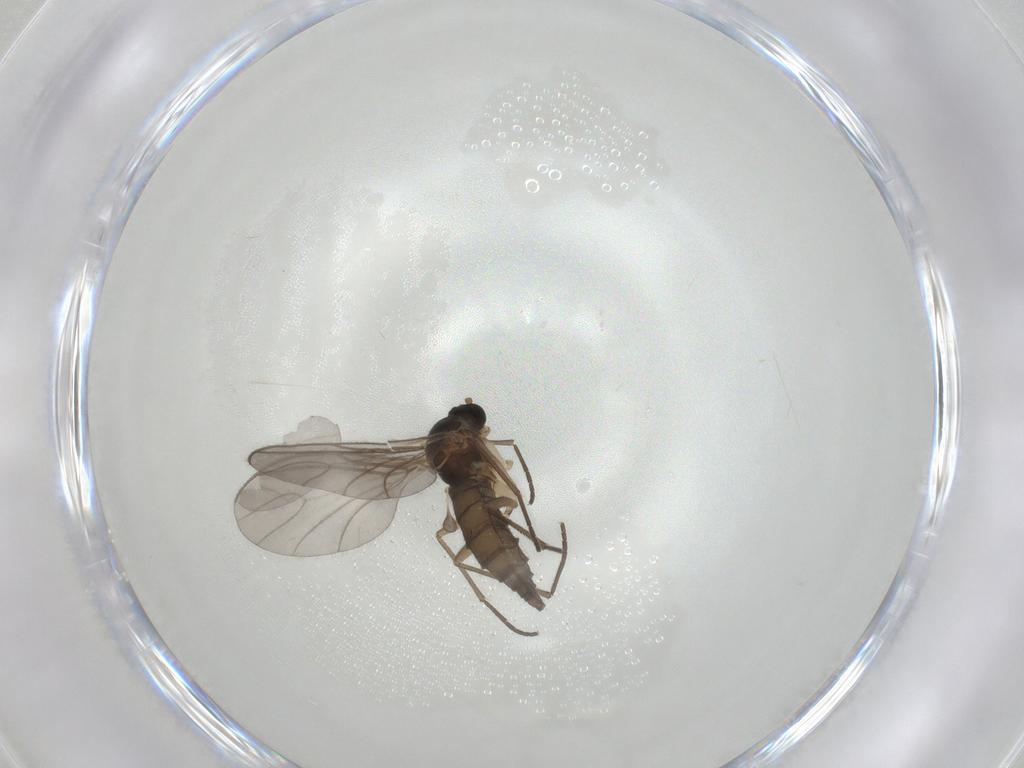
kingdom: Animalia
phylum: Arthropoda
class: Insecta
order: Diptera
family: Sciaridae
